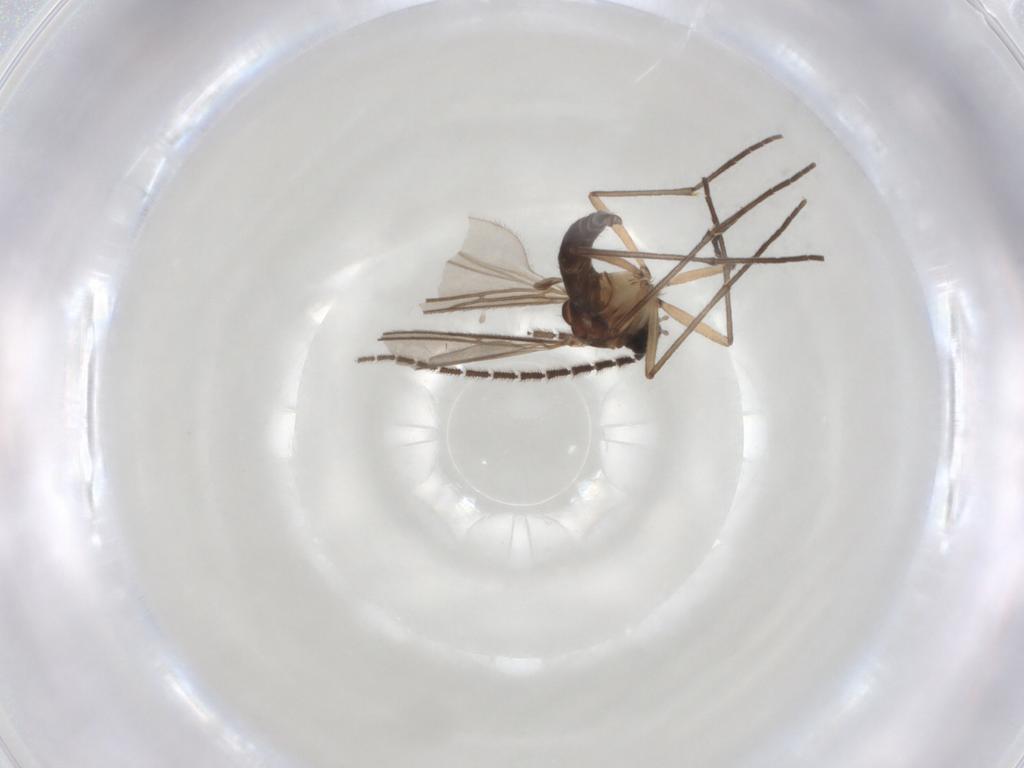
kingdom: Animalia
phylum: Arthropoda
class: Insecta
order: Diptera
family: Sciaridae
